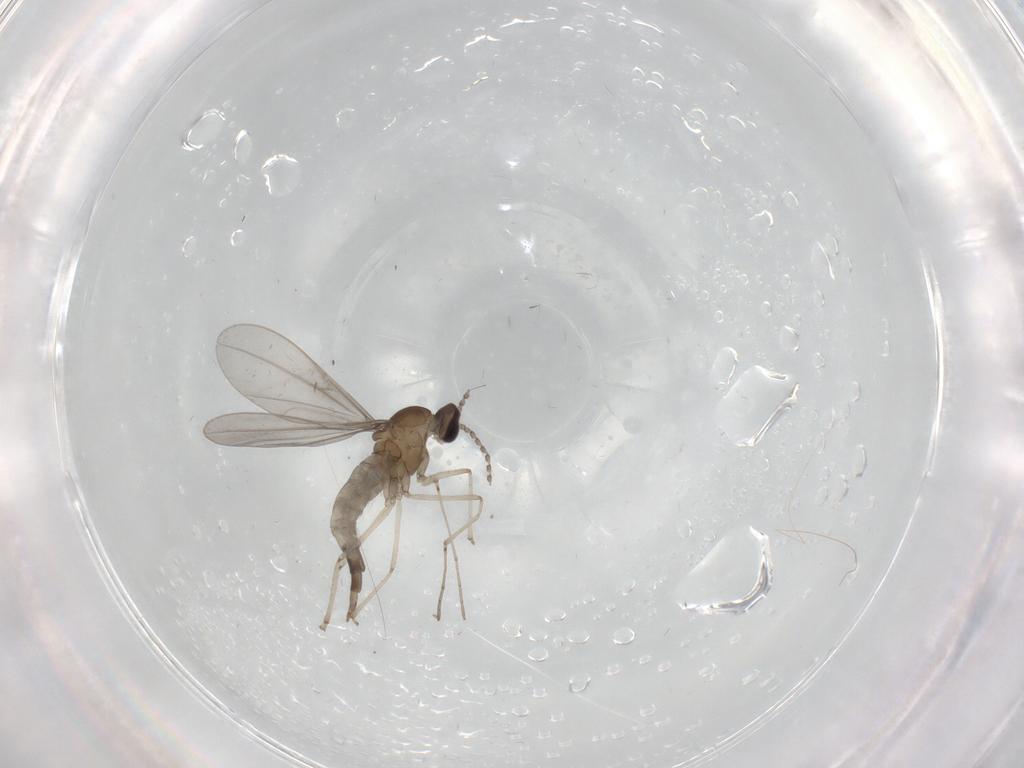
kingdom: Animalia
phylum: Arthropoda
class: Insecta
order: Diptera
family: Cecidomyiidae
